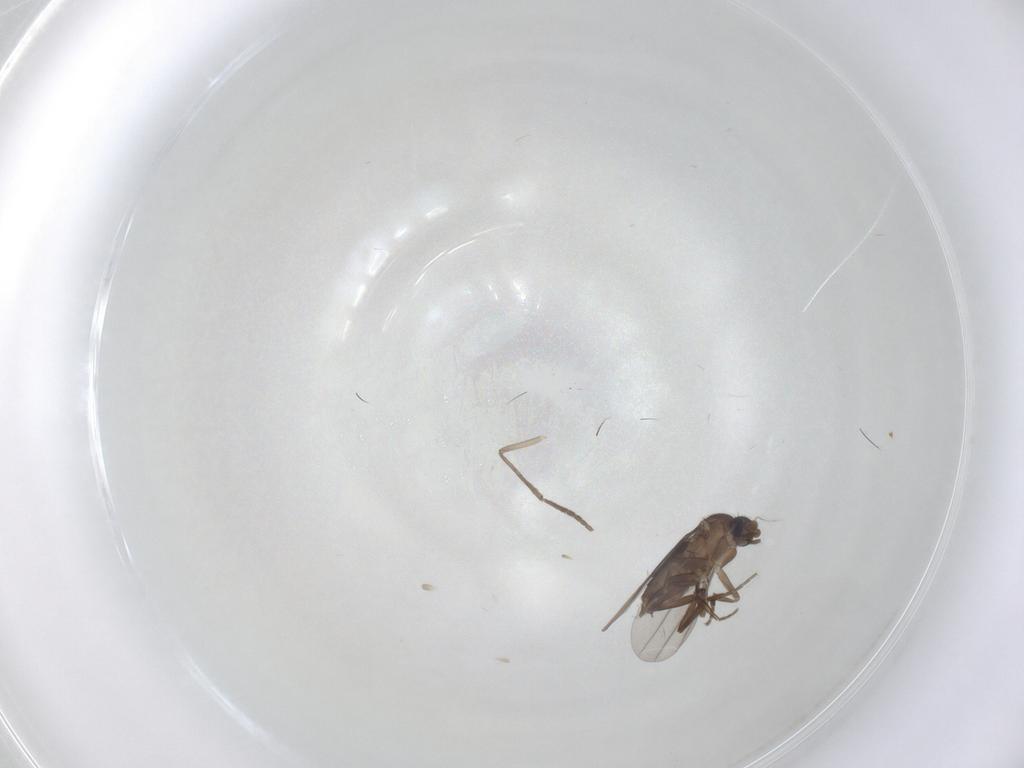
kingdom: Animalia
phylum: Arthropoda
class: Insecta
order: Diptera
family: Phoridae
